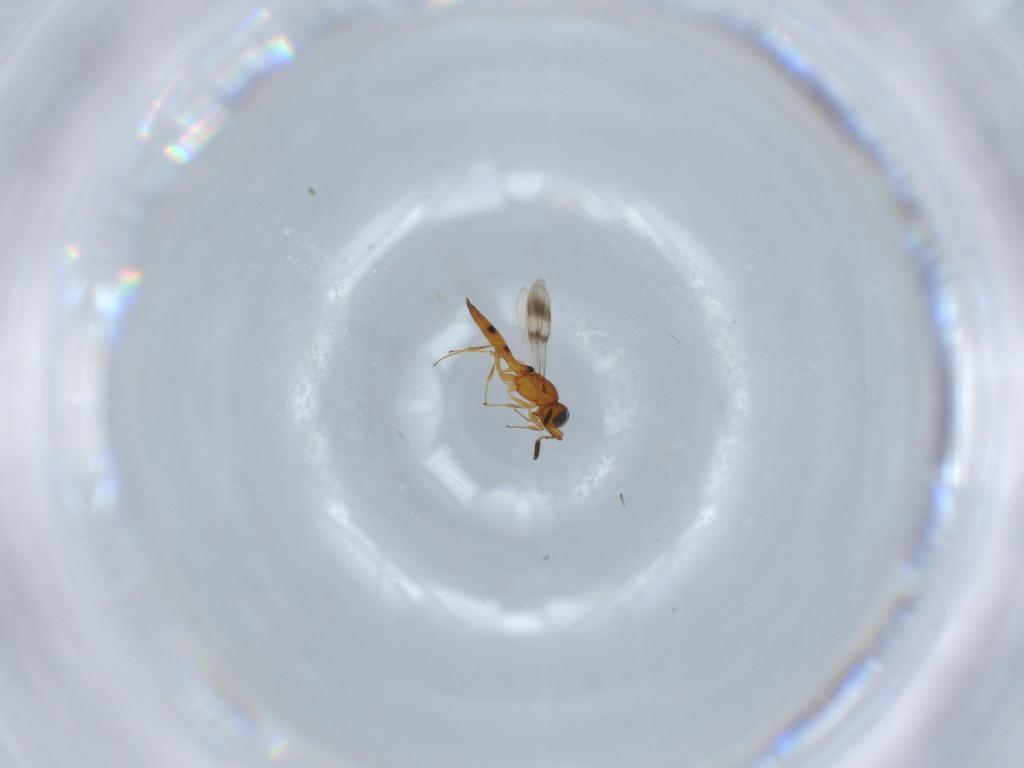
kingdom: Animalia
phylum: Arthropoda
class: Insecta
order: Hymenoptera
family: Scelionidae
